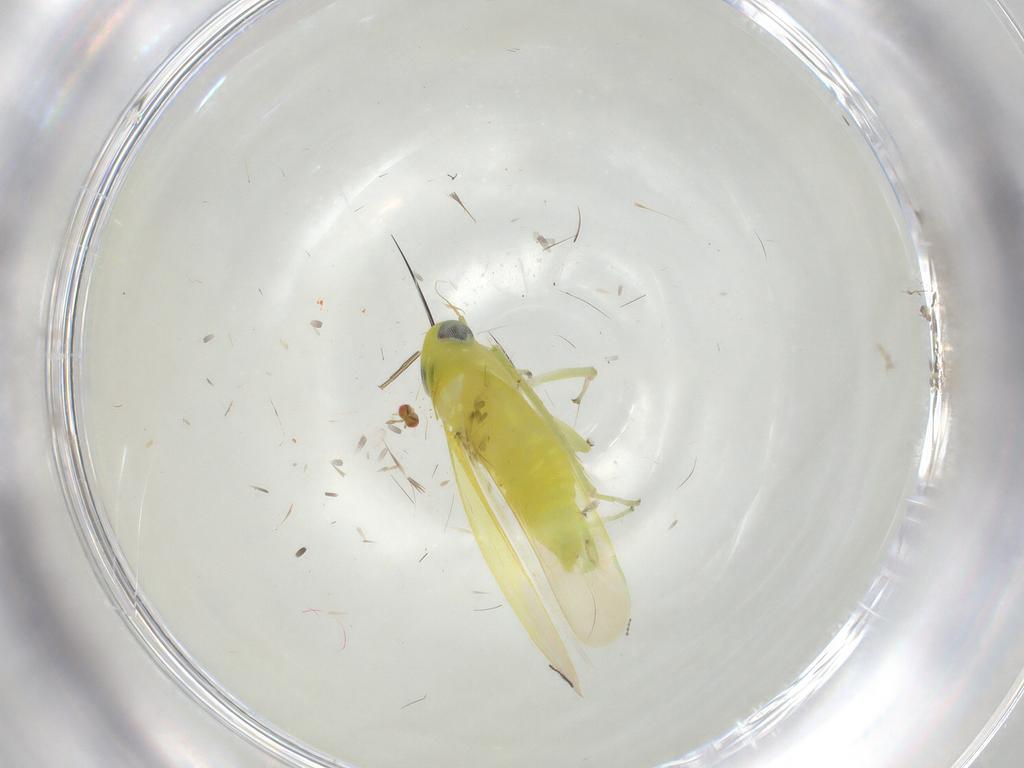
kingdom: Animalia
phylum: Arthropoda
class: Insecta
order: Hemiptera
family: Cicadellidae
